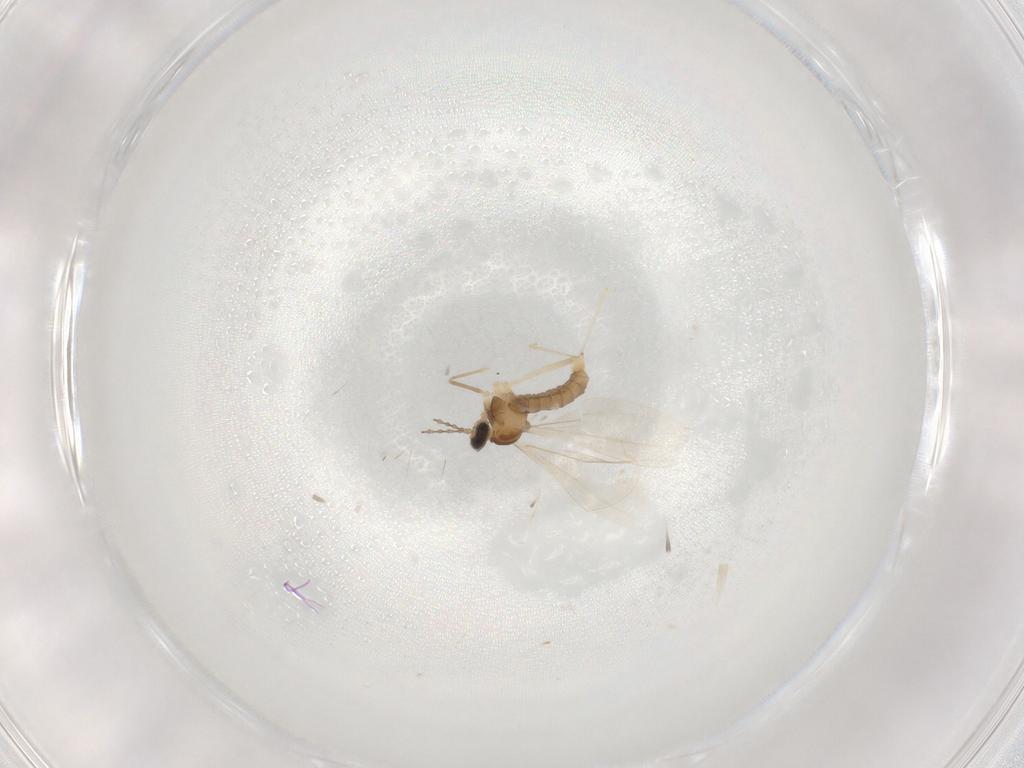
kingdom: Animalia
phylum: Arthropoda
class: Insecta
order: Diptera
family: Cecidomyiidae
